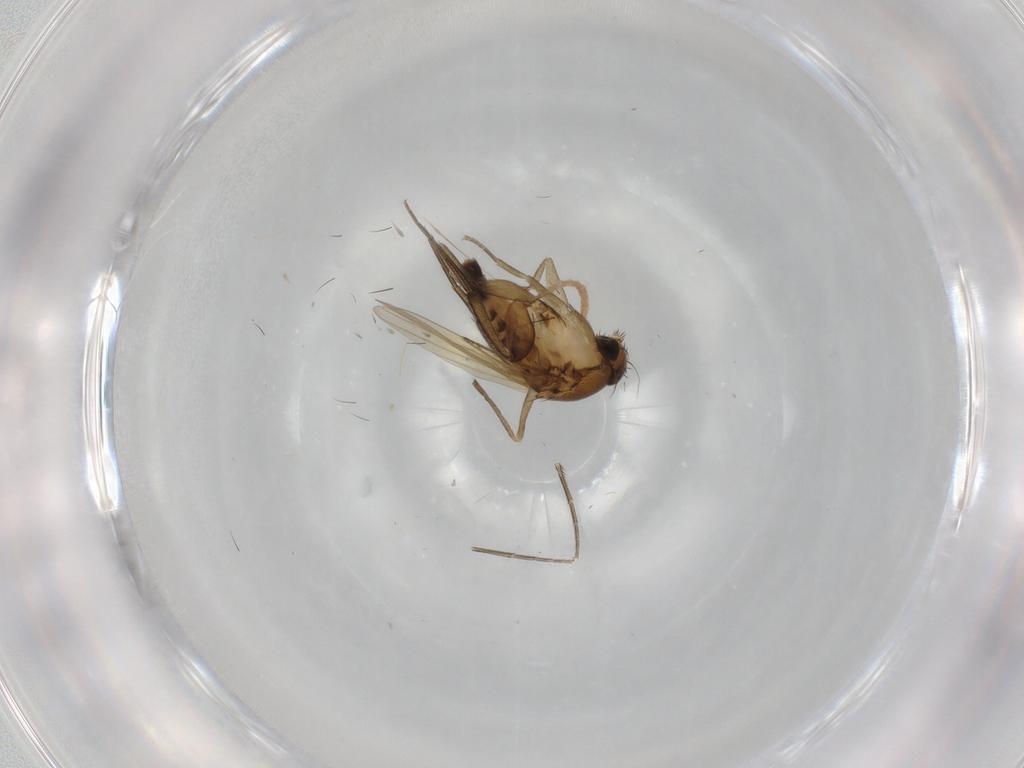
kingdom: Animalia
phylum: Arthropoda
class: Insecta
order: Diptera
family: Phoridae
